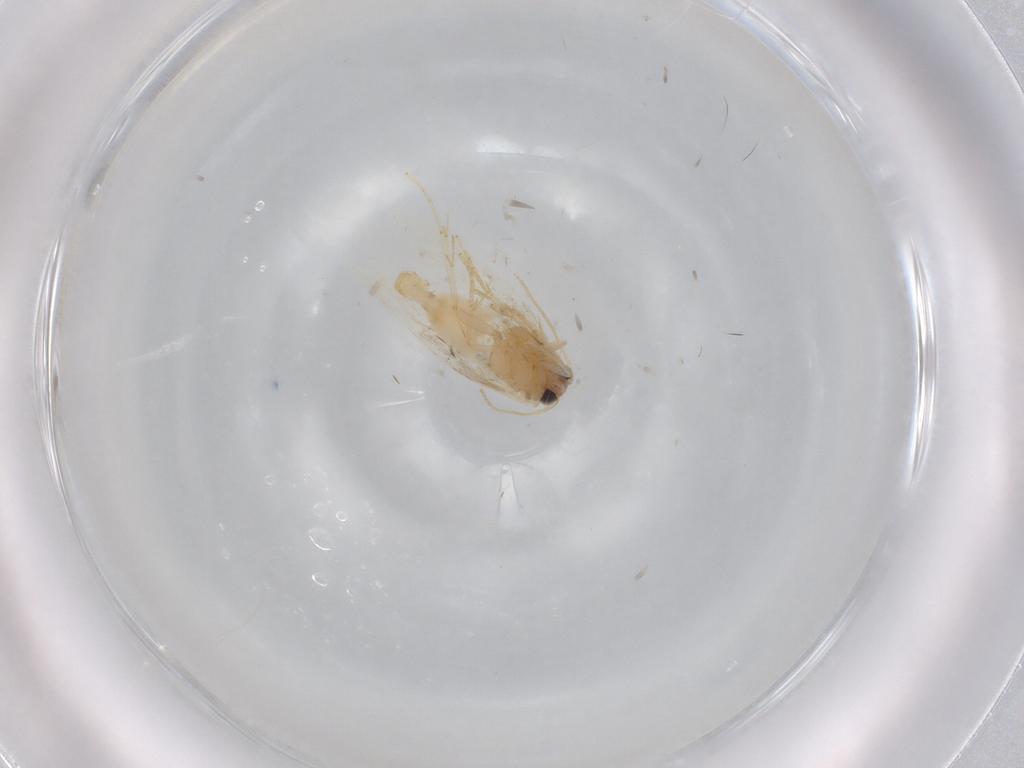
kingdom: Animalia
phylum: Arthropoda
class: Insecta
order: Lepidoptera
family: Nepticulidae
